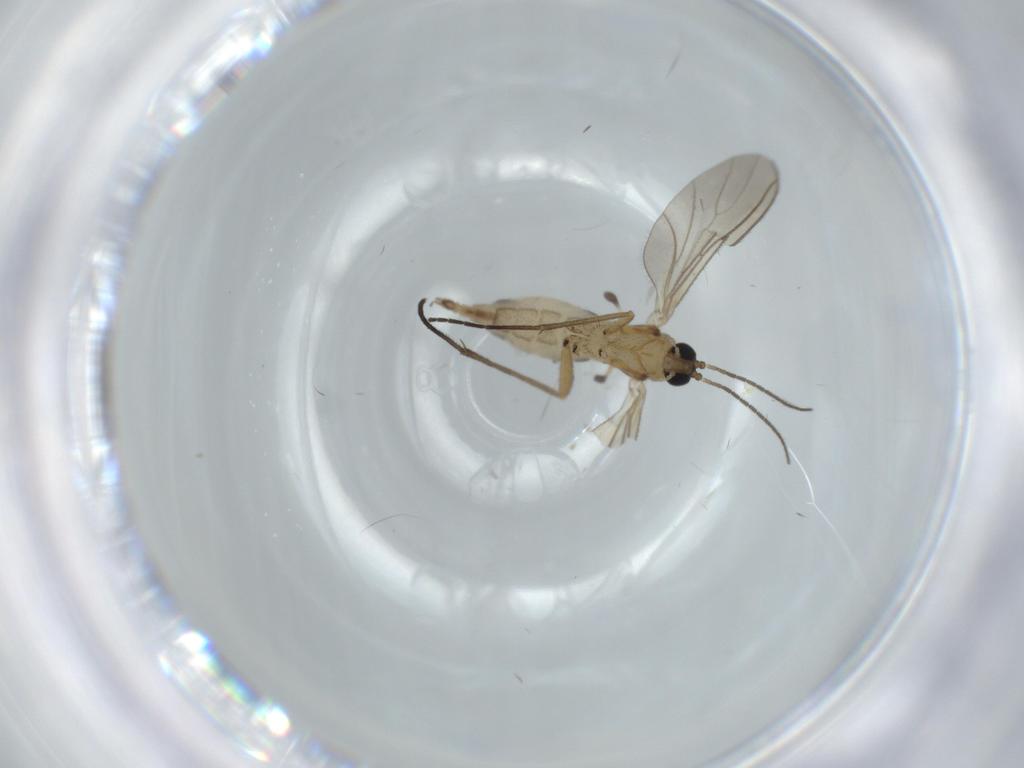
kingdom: Animalia
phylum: Arthropoda
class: Insecta
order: Diptera
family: Sciaridae
